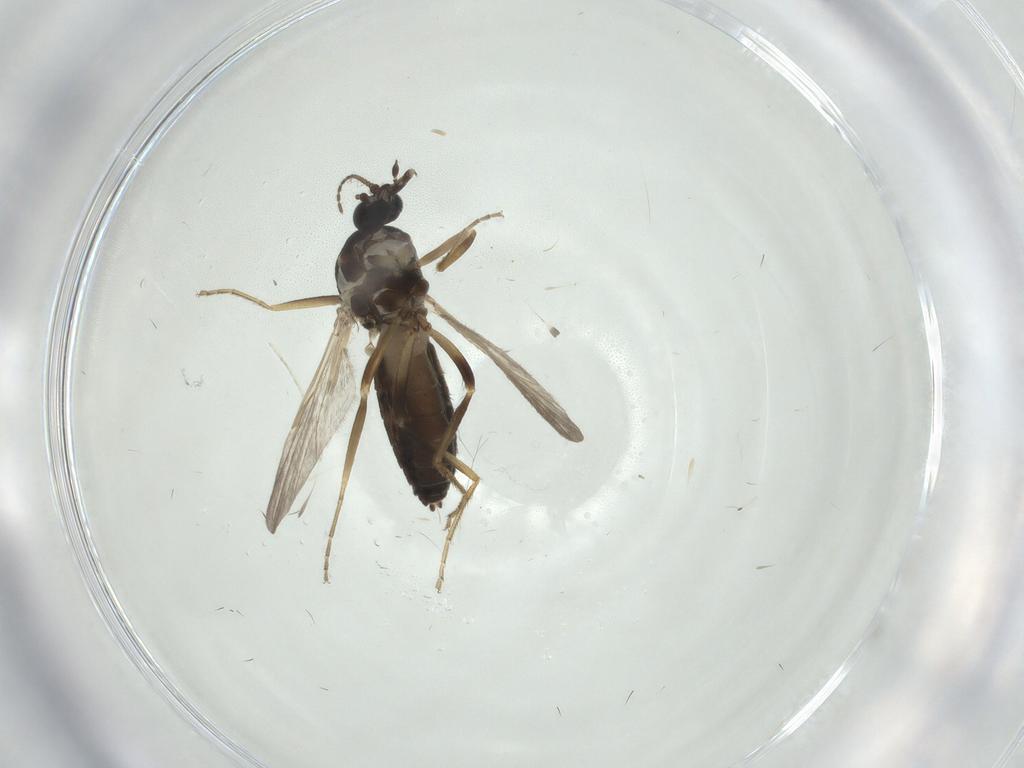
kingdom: Animalia
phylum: Arthropoda
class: Insecta
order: Diptera
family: Ceratopogonidae
